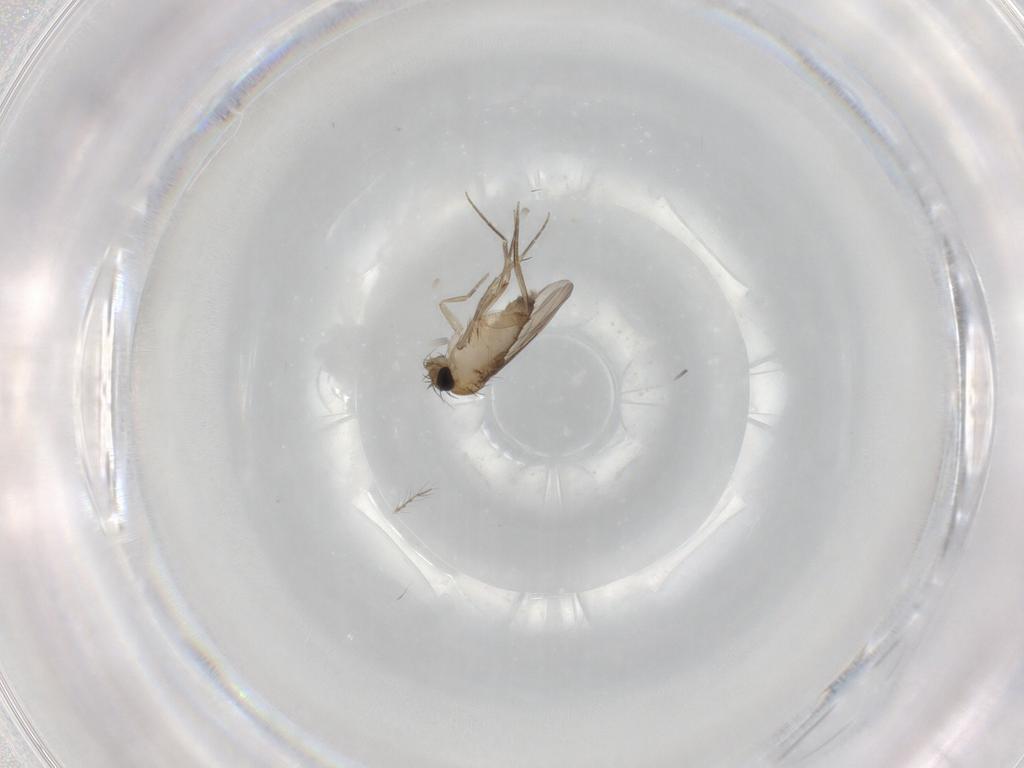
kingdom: Animalia
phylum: Arthropoda
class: Insecta
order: Diptera
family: Phoridae
